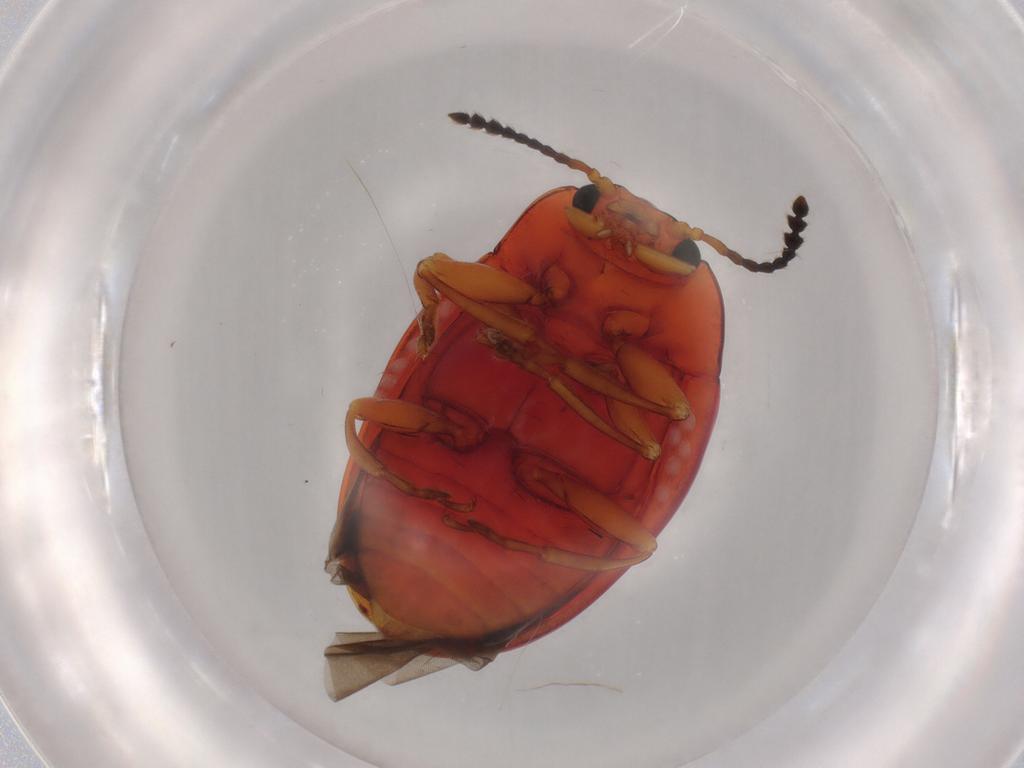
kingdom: Animalia
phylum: Arthropoda
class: Insecta
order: Coleoptera
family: Erotylidae
